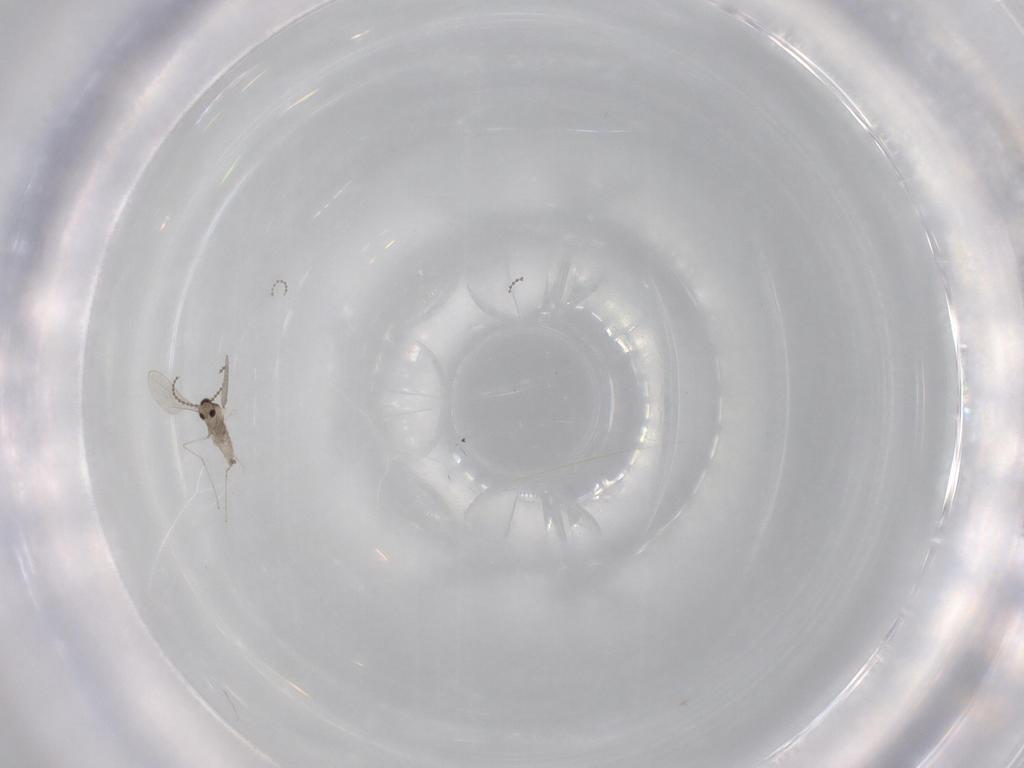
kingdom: Animalia
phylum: Arthropoda
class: Insecta
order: Diptera
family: Cecidomyiidae
